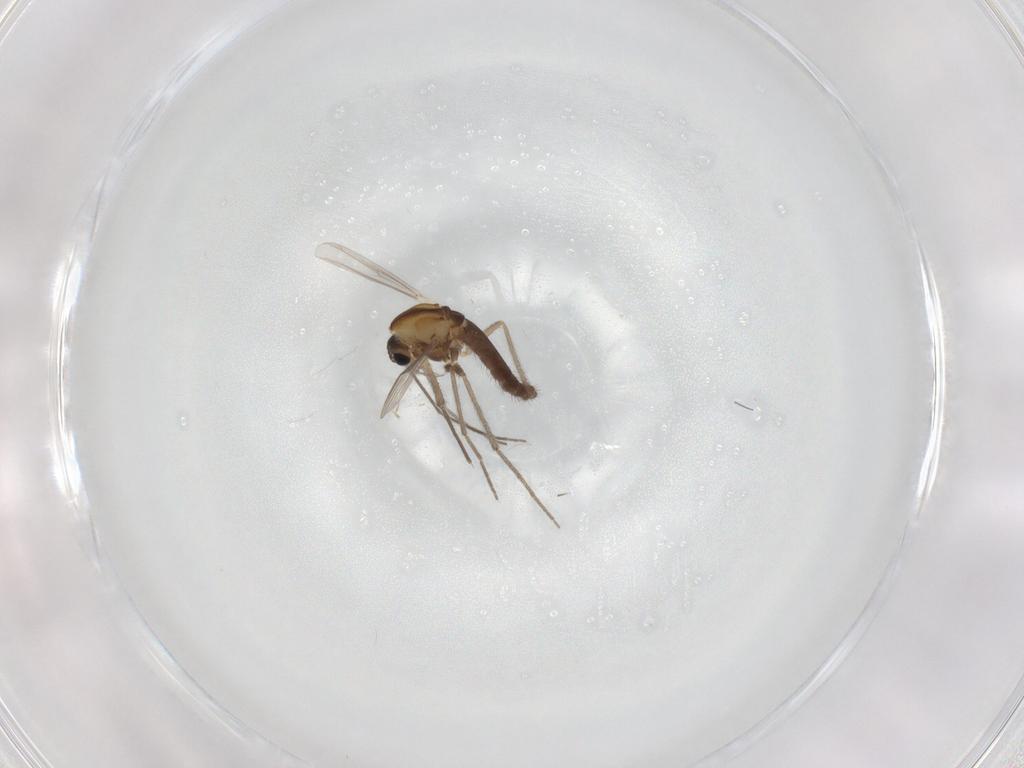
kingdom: Animalia
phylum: Arthropoda
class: Insecta
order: Diptera
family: Chironomidae
